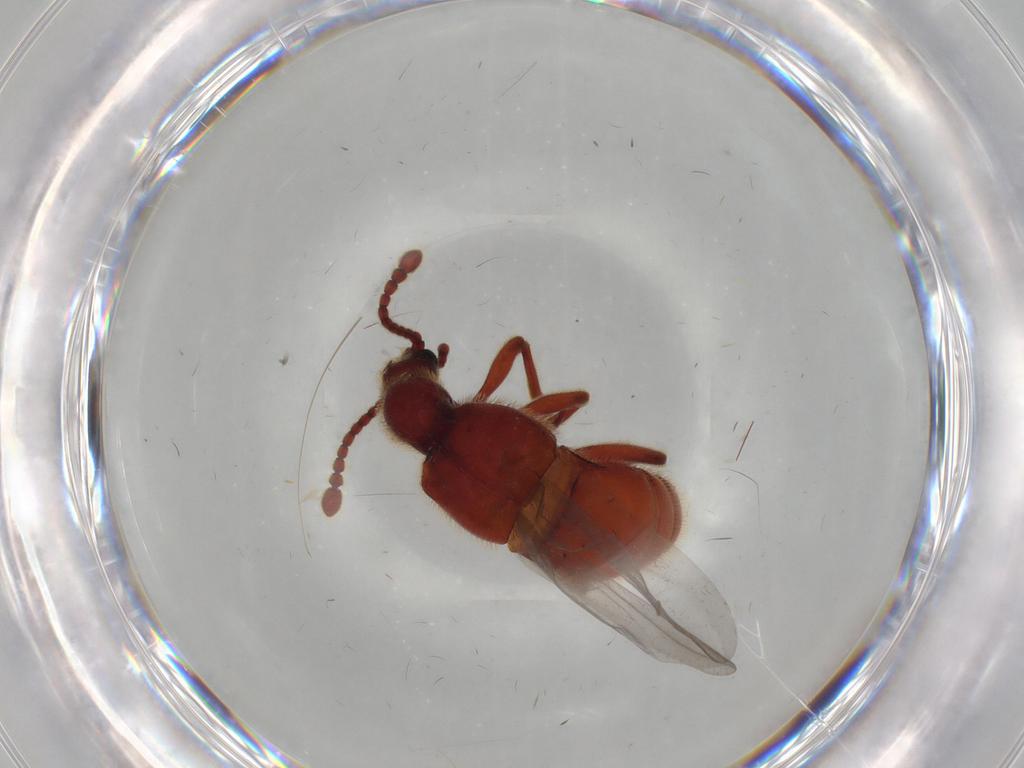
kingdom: Animalia
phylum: Arthropoda
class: Insecta
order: Coleoptera
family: Staphylinidae
